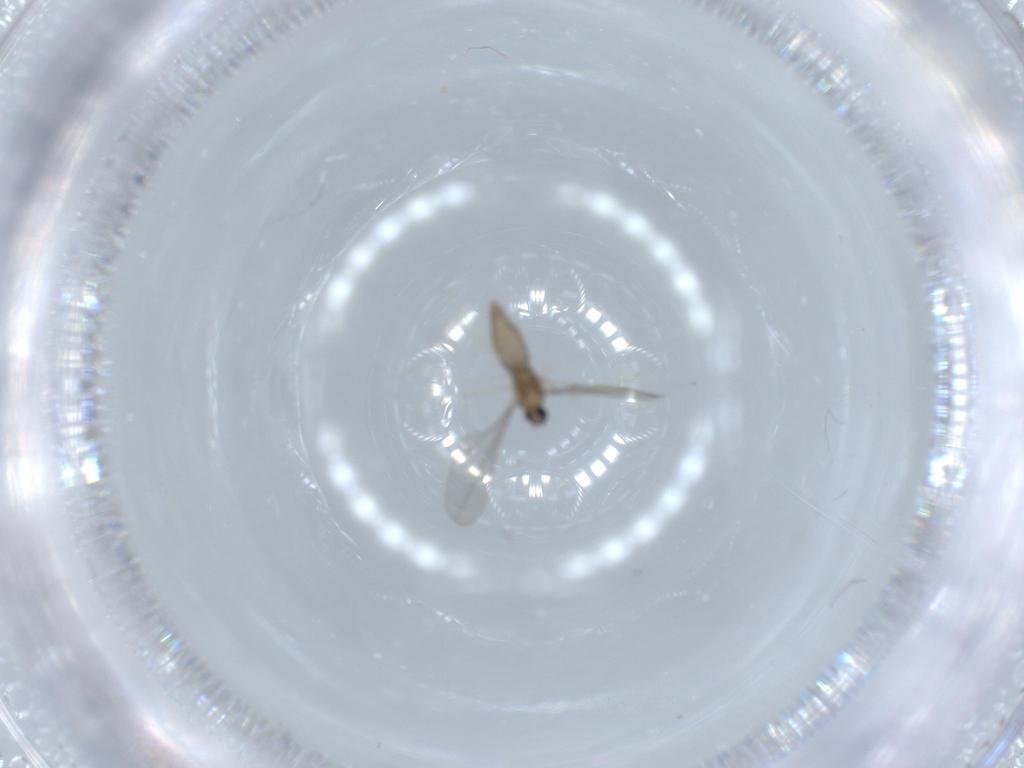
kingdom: Animalia
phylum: Arthropoda
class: Insecta
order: Diptera
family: Cecidomyiidae
